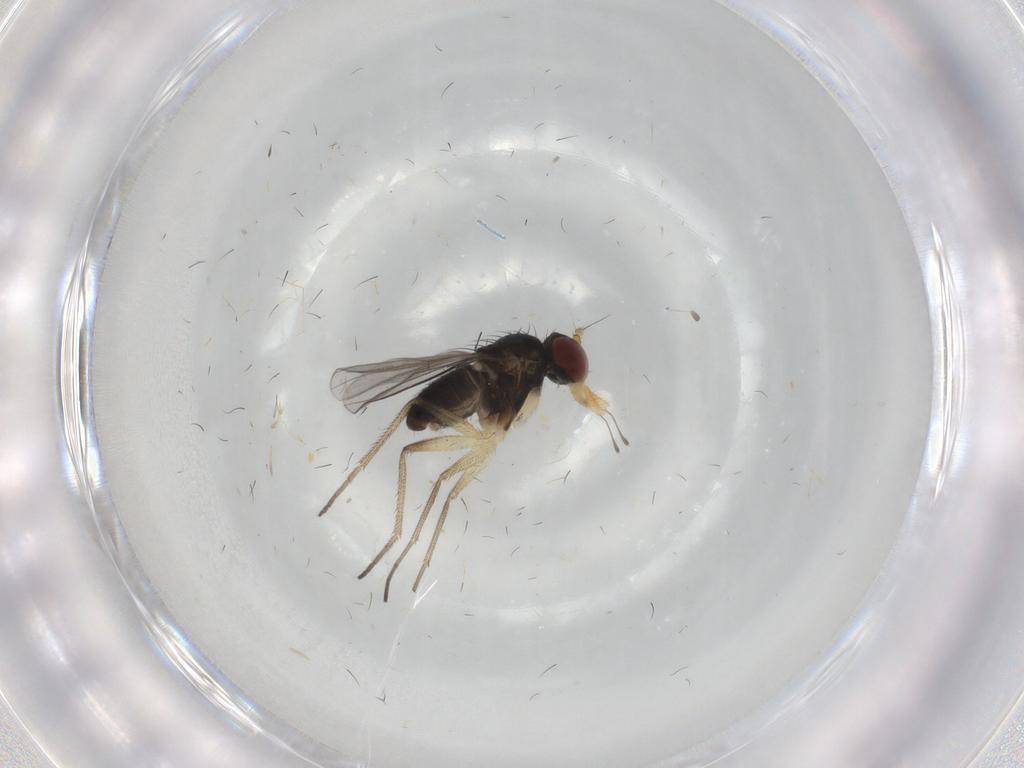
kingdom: Animalia
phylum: Arthropoda
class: Insecta
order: Diptera
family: Dolichopodidae
